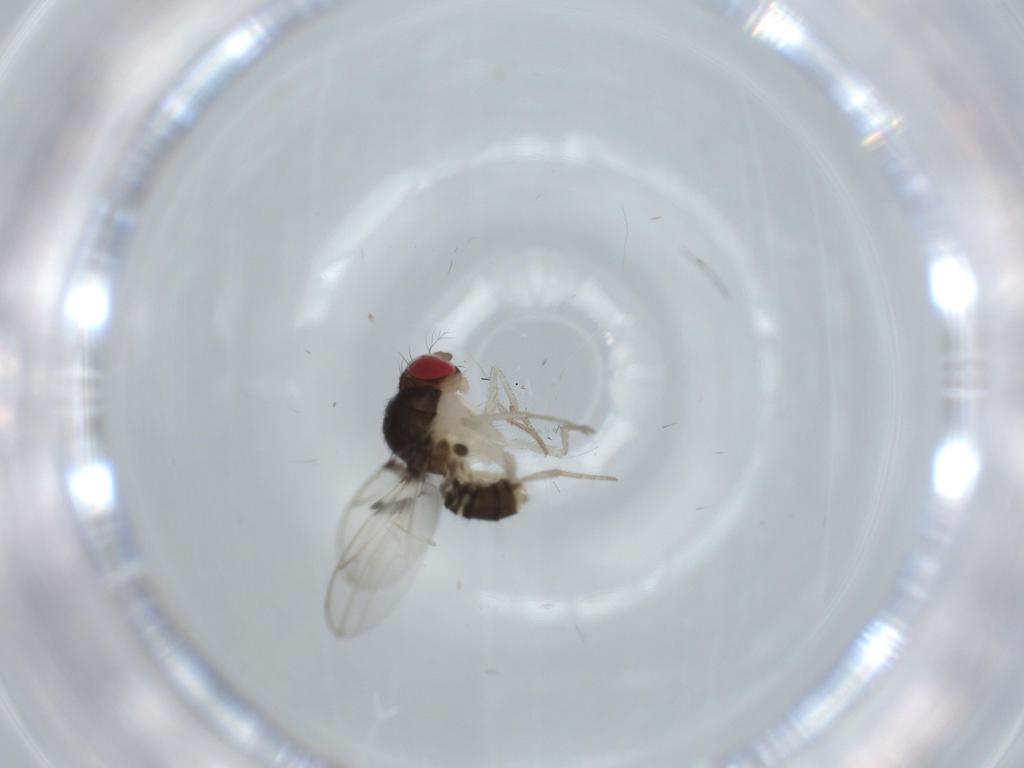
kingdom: Animalia
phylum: Arthropoda
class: Insecta
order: Diptera
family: Drosophilidae
